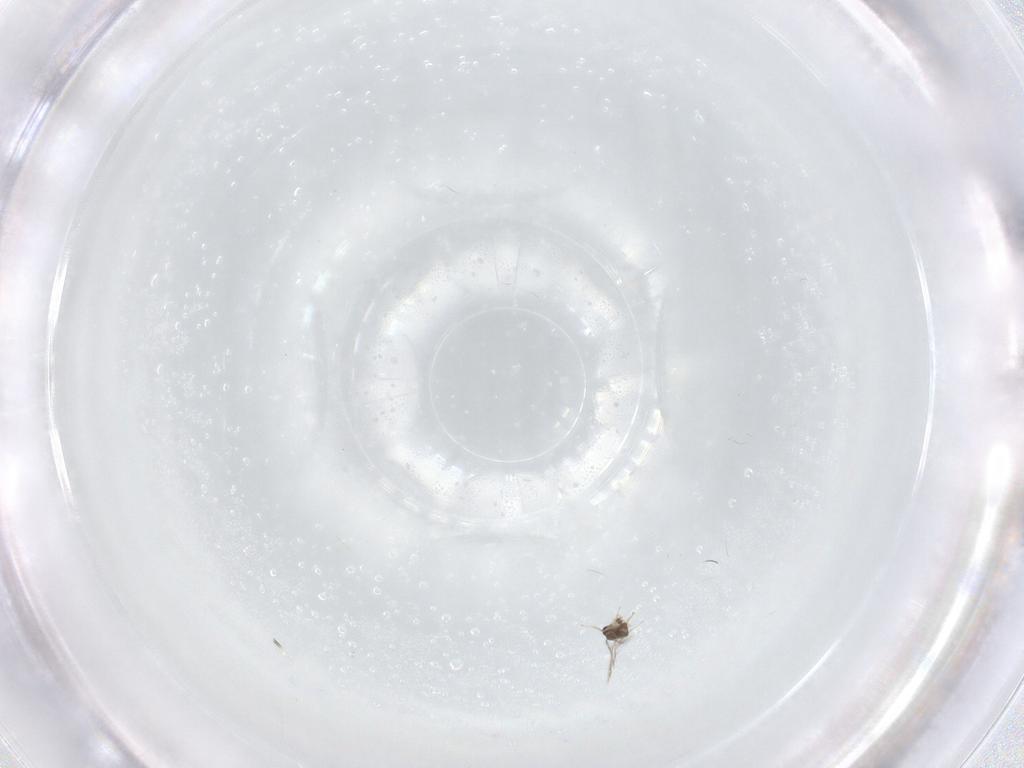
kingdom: Animalia
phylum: Arthropoda
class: Insecta
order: Hymenoptera
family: Mymaridae
